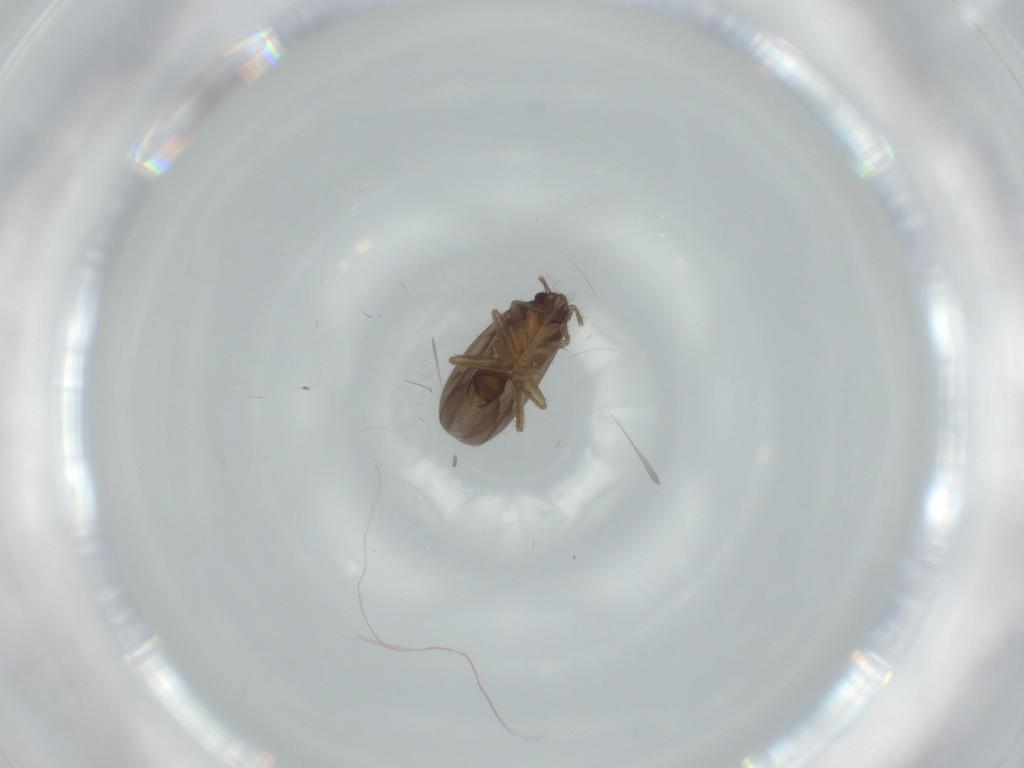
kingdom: Animalia
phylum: Arthropoda
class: Insecta
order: Hemiptera
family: Ceratocombidae
